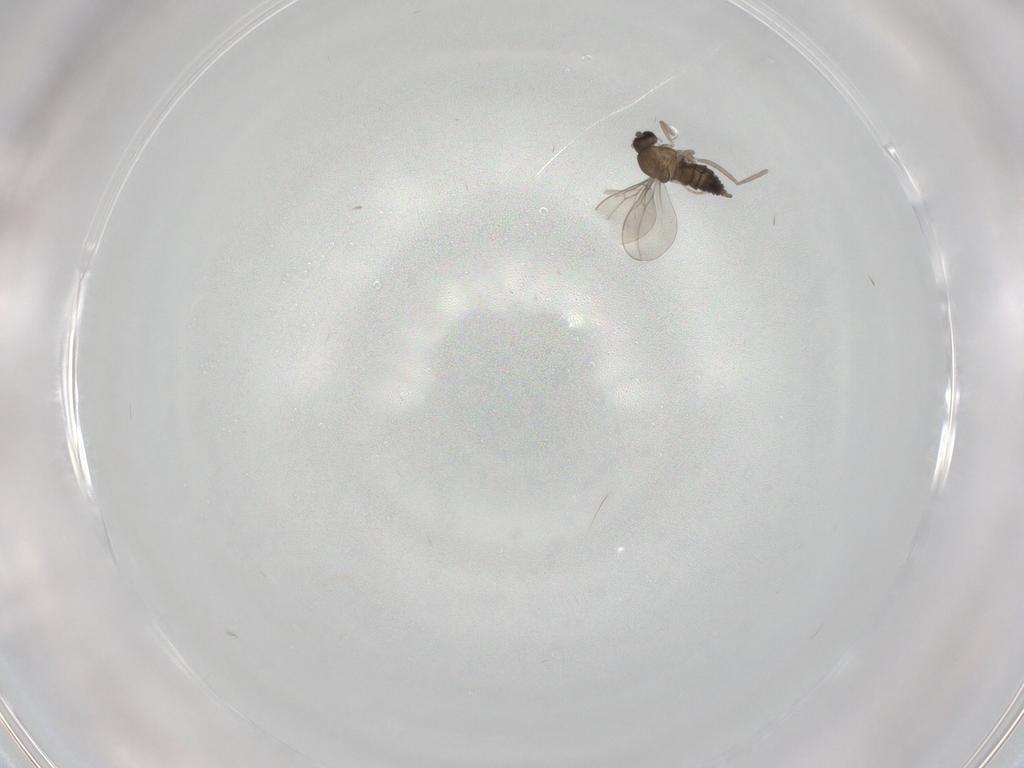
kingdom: Animalia
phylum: Arthropoda
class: Insecta
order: Diptera
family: Cecidomyiidae
